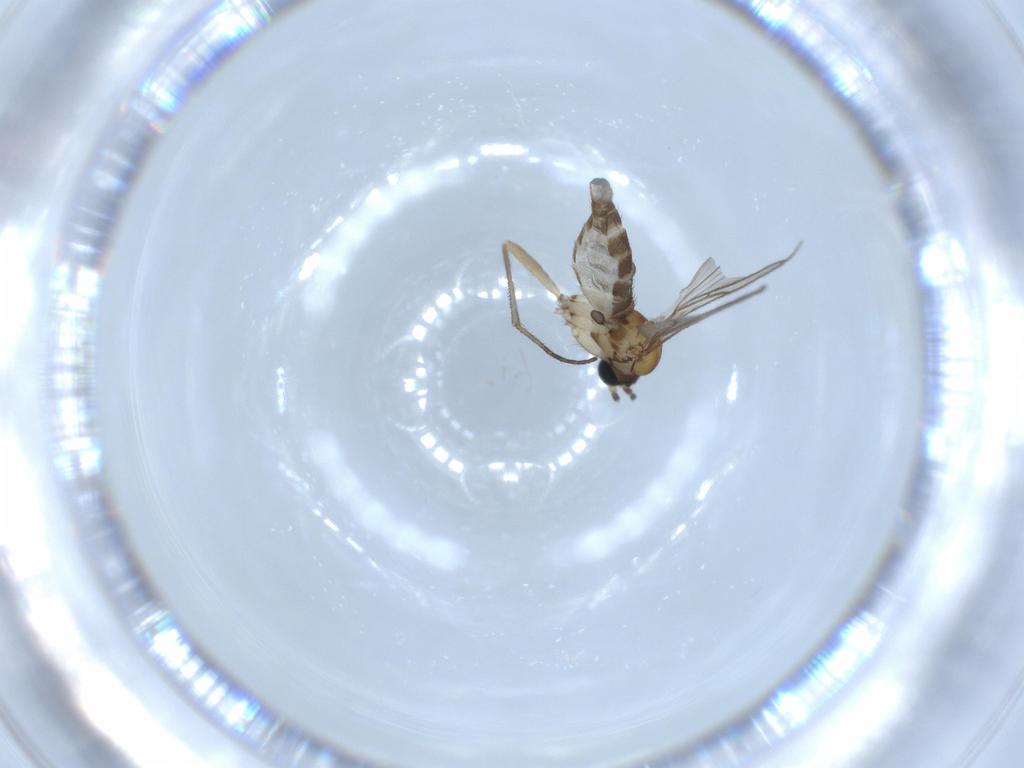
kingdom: Animalia
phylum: Arthropoda
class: Insecta
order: Diptera
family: Sciaridae
